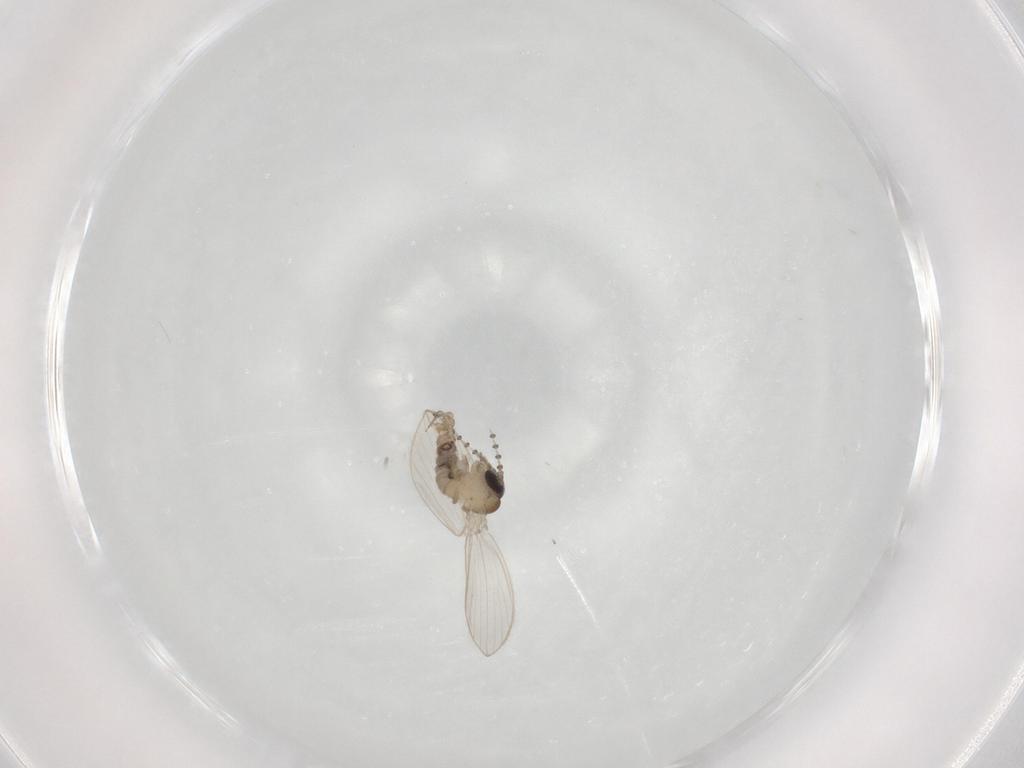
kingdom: Animalia
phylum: Arthropoda
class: Insecta
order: Diptera
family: Psychodidae
